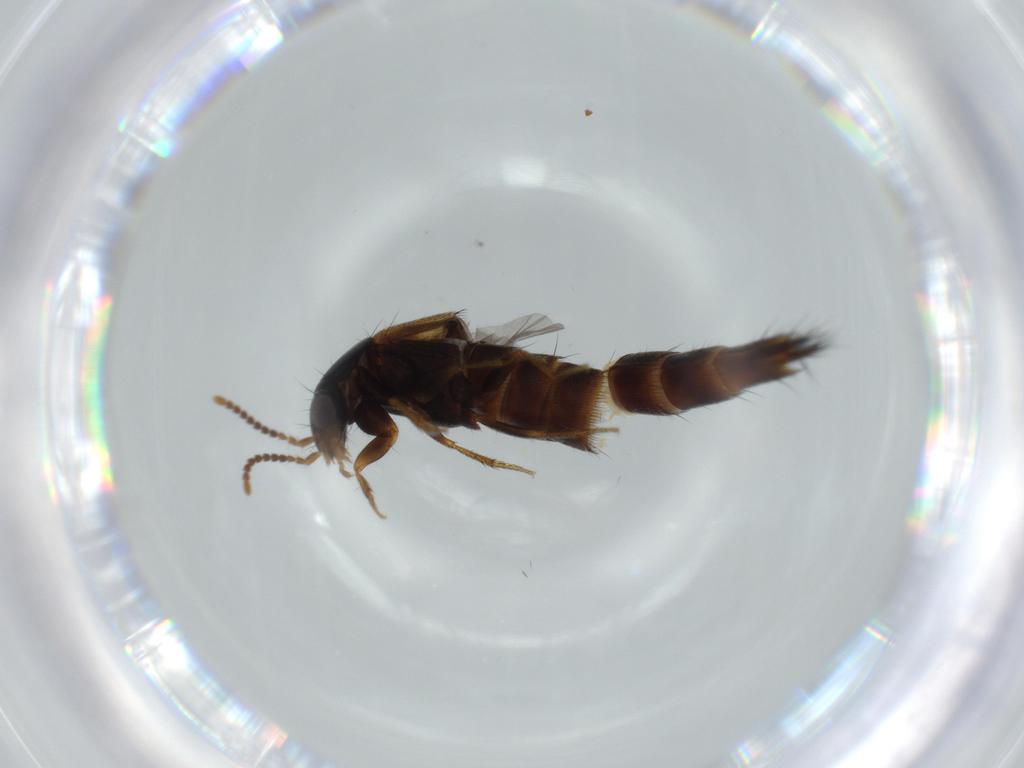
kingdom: Animalia
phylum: Arthropoda
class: Insecta
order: Coleoptera
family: Staphylinidae
